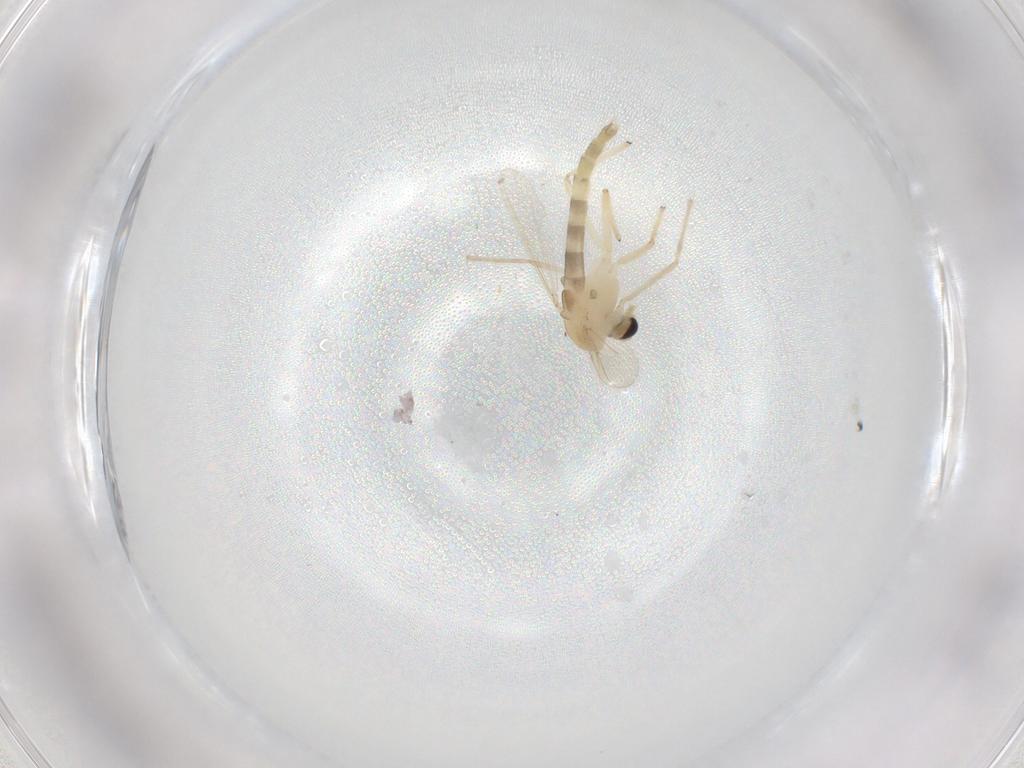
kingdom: Animalia
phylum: Arthropoda
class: Insecta
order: Diptera
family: Chironomidae
